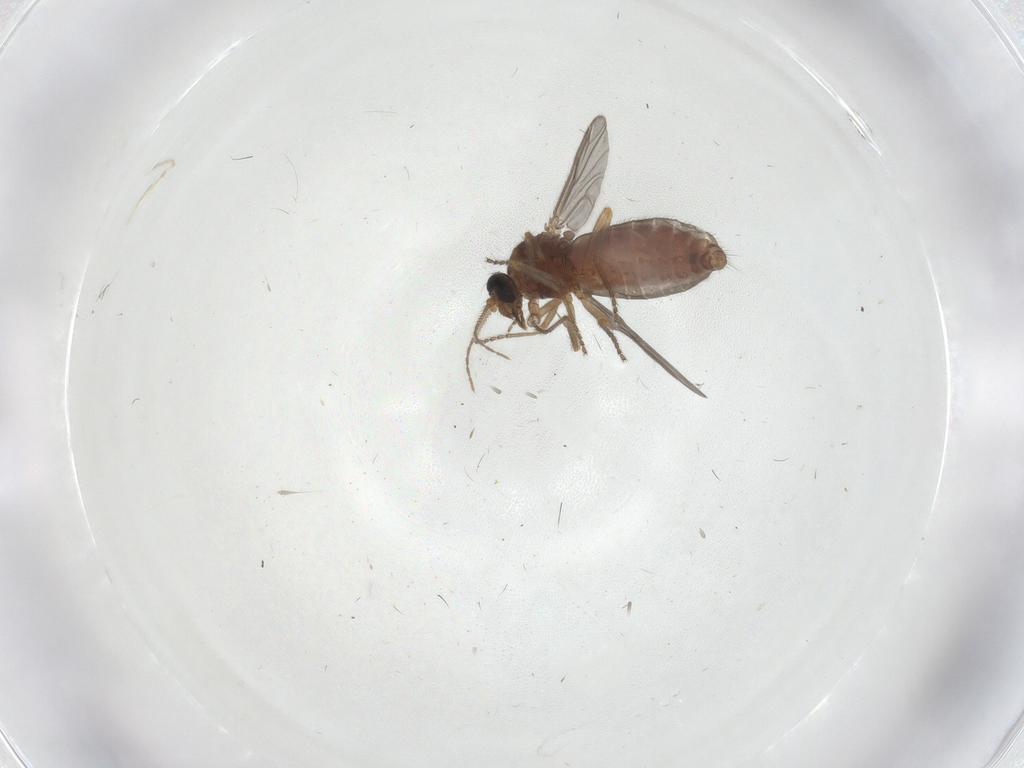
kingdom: Animalia
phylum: Arthropoda
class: Insecta
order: Diptera
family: Ceratopogonidae
